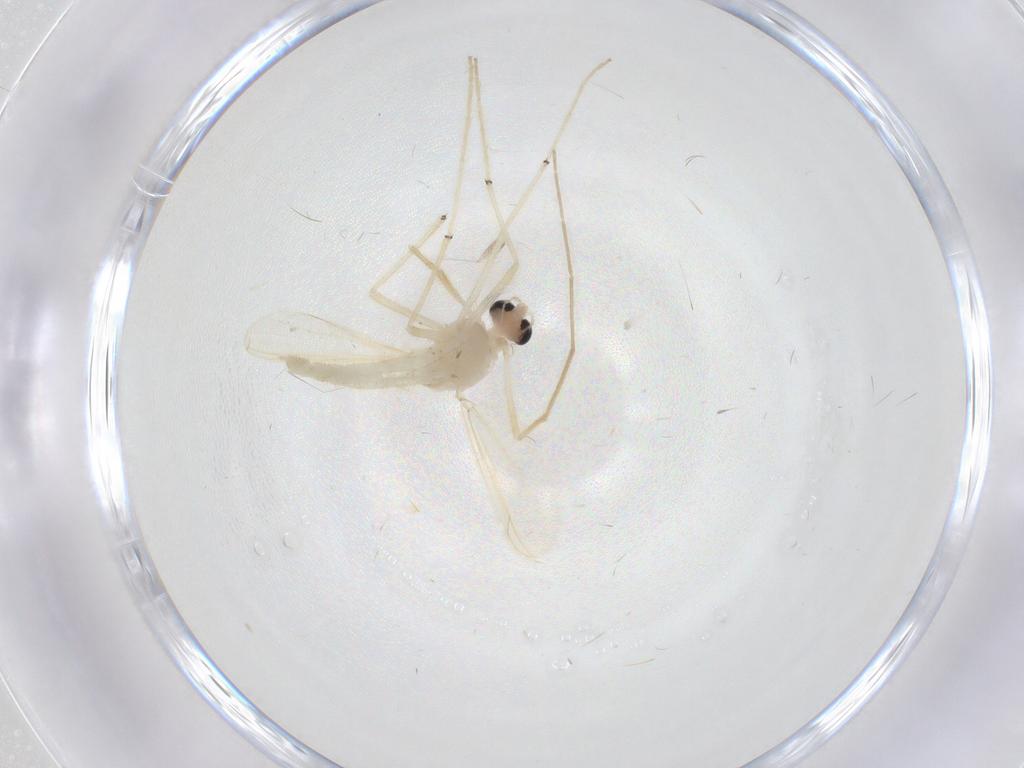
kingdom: Animalia
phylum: Arthropoda
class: Insecta
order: Diptera
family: Chironomidae
